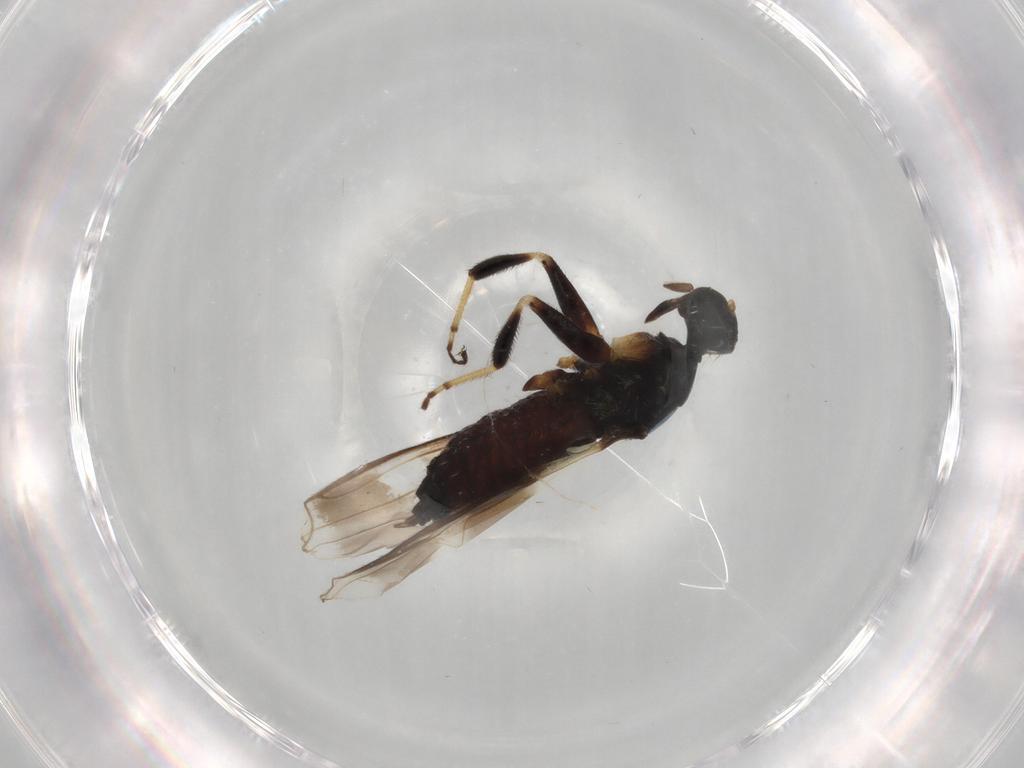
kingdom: Animalia
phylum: Arthropoda
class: Insecta
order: Diptera
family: Hybotidae
